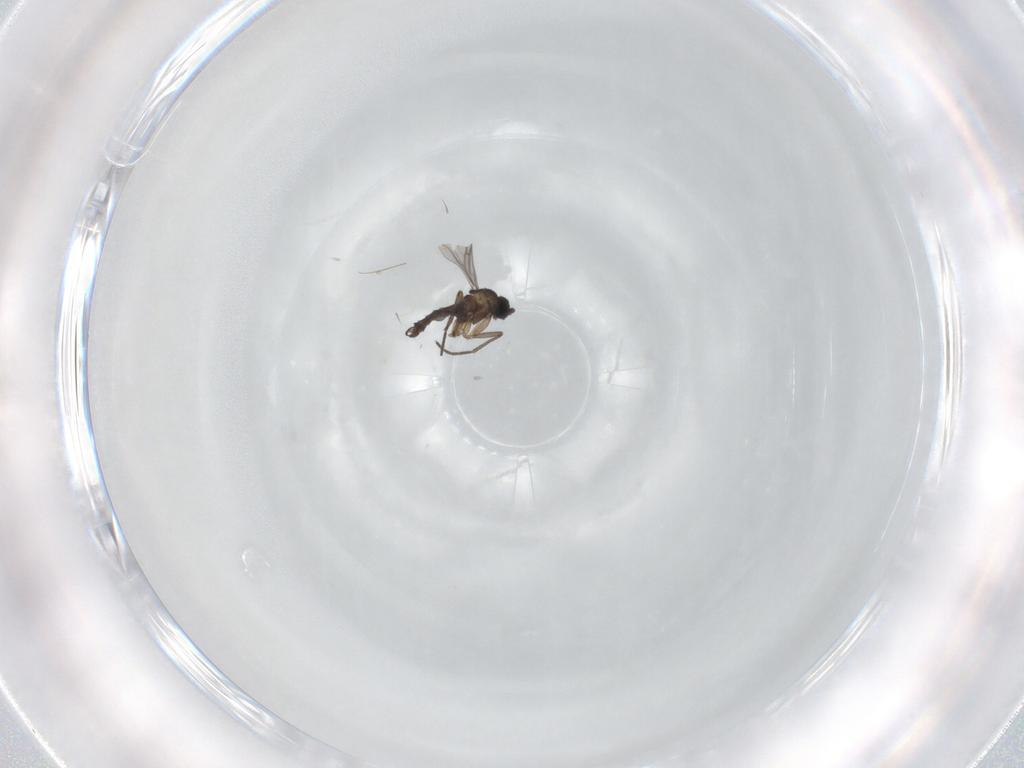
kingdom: Animalia
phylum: Arthropoda
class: Insecta
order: Diptera
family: Sciaridae
